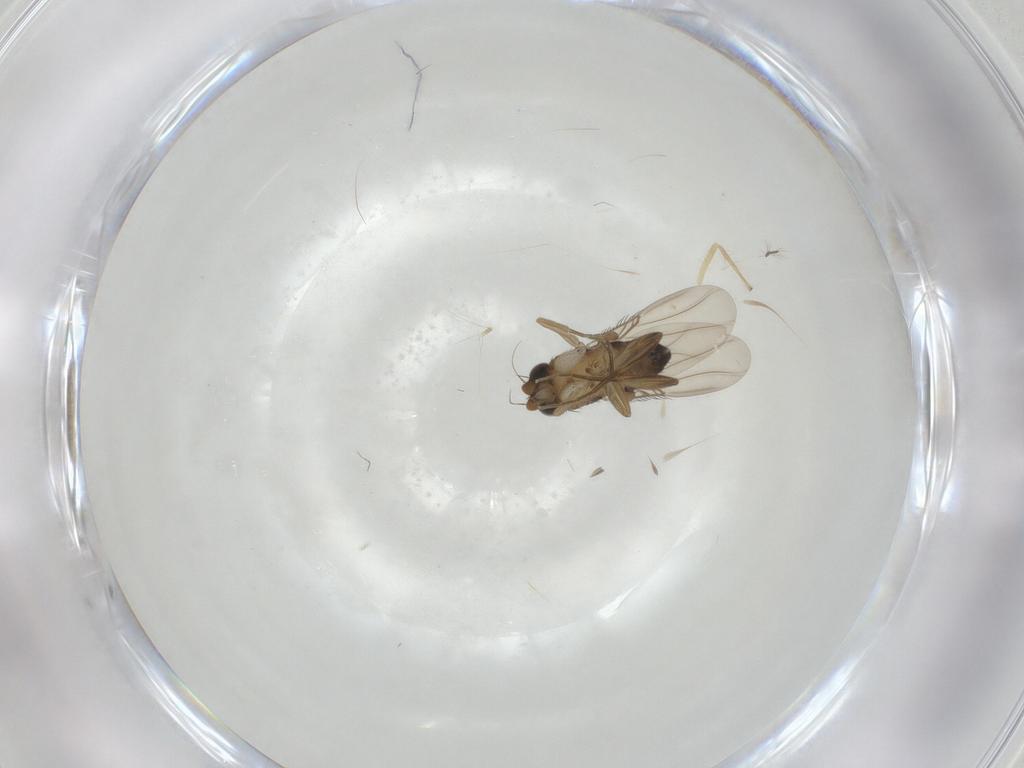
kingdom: Animalia
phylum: Arthropoda
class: Insecta
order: Diptera
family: Phoridae
